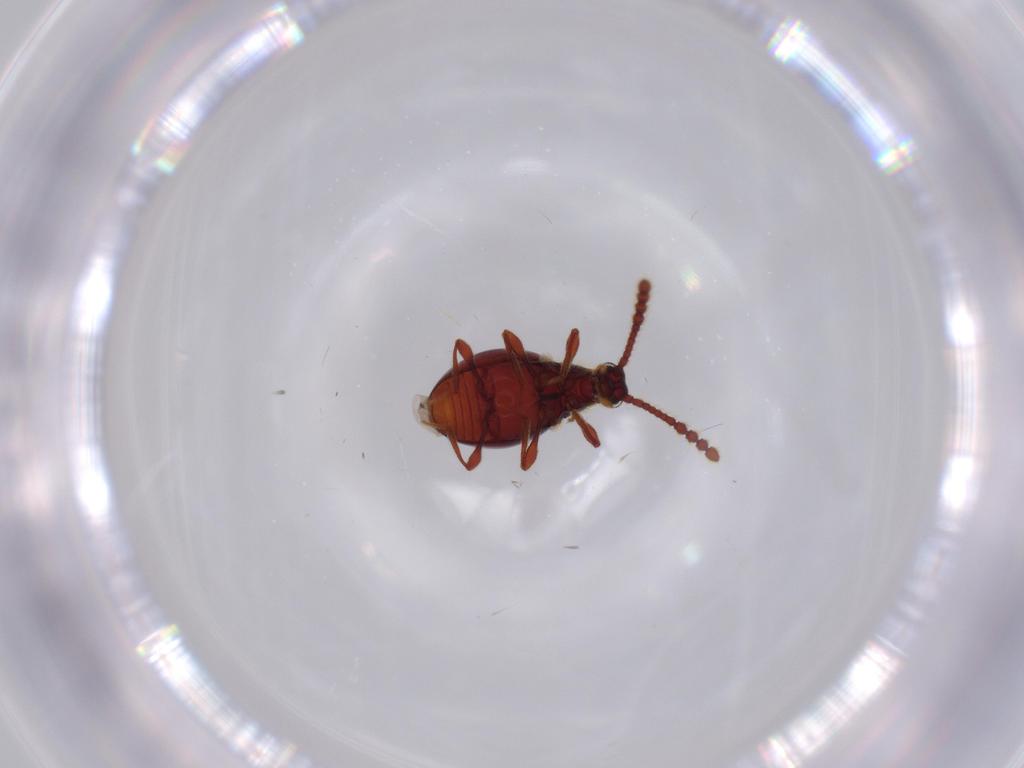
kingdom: Animalia
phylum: Arthropoda
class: Insecta
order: Coleoptera
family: Staphylinidae
